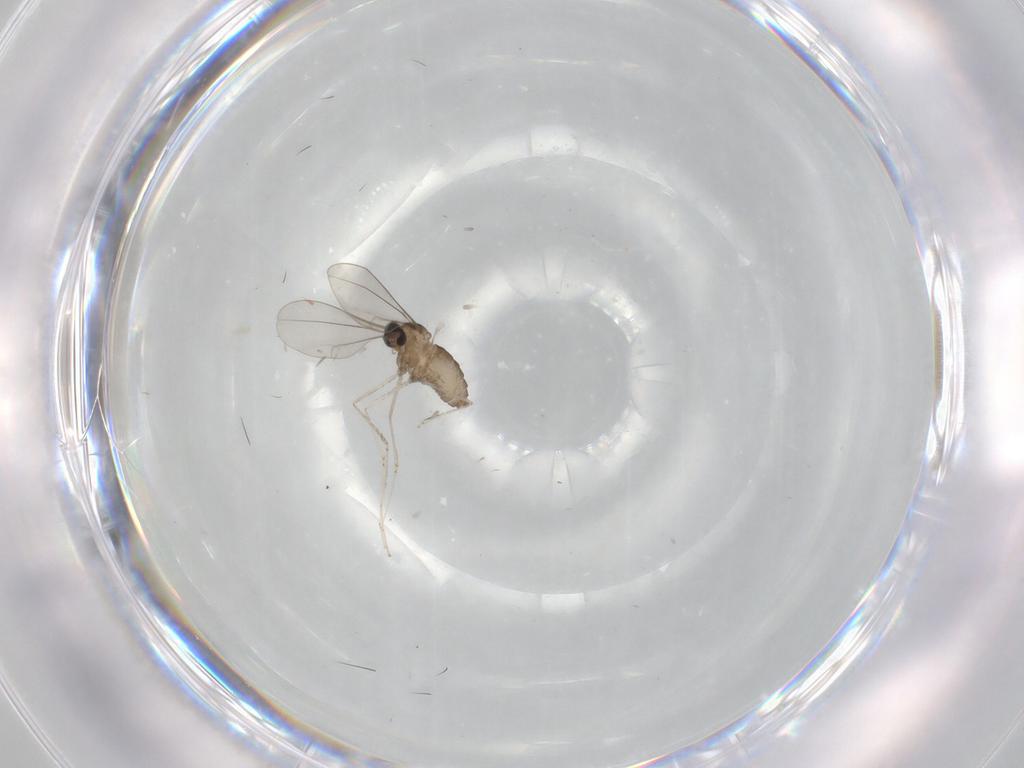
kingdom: Animalia
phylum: Arthropoda
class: Insecta
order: Diptera
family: Cecidomyiidae
